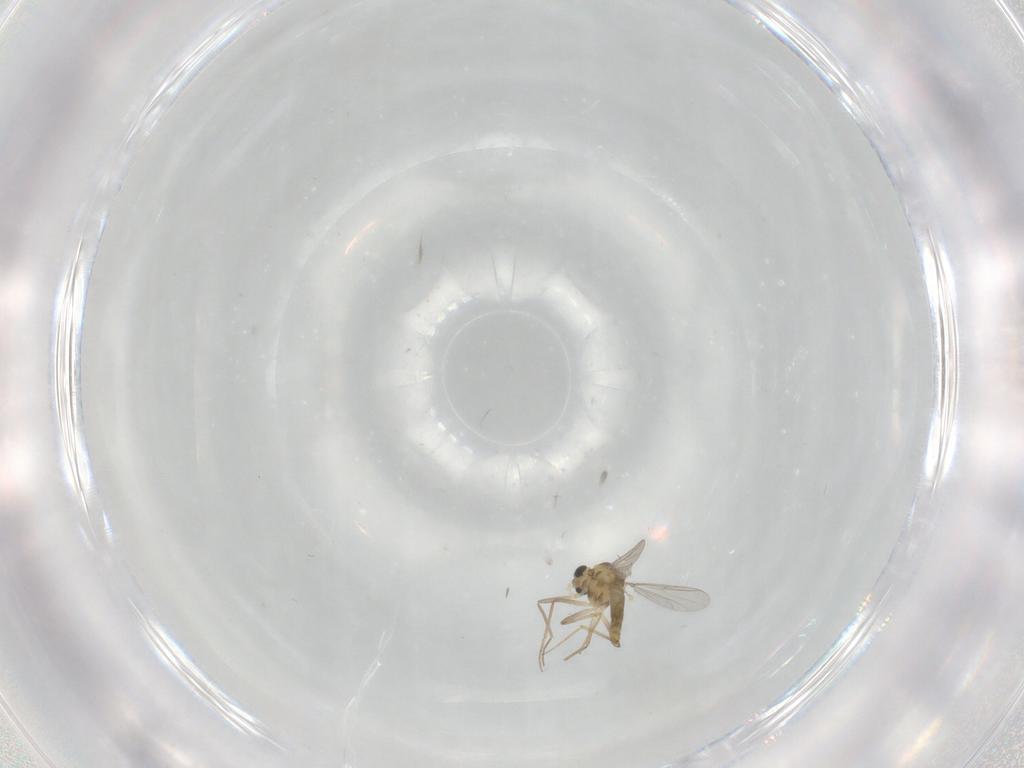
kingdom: Animalia
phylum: Arthropoda
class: Insecta
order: Diptera
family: Chironomidae
